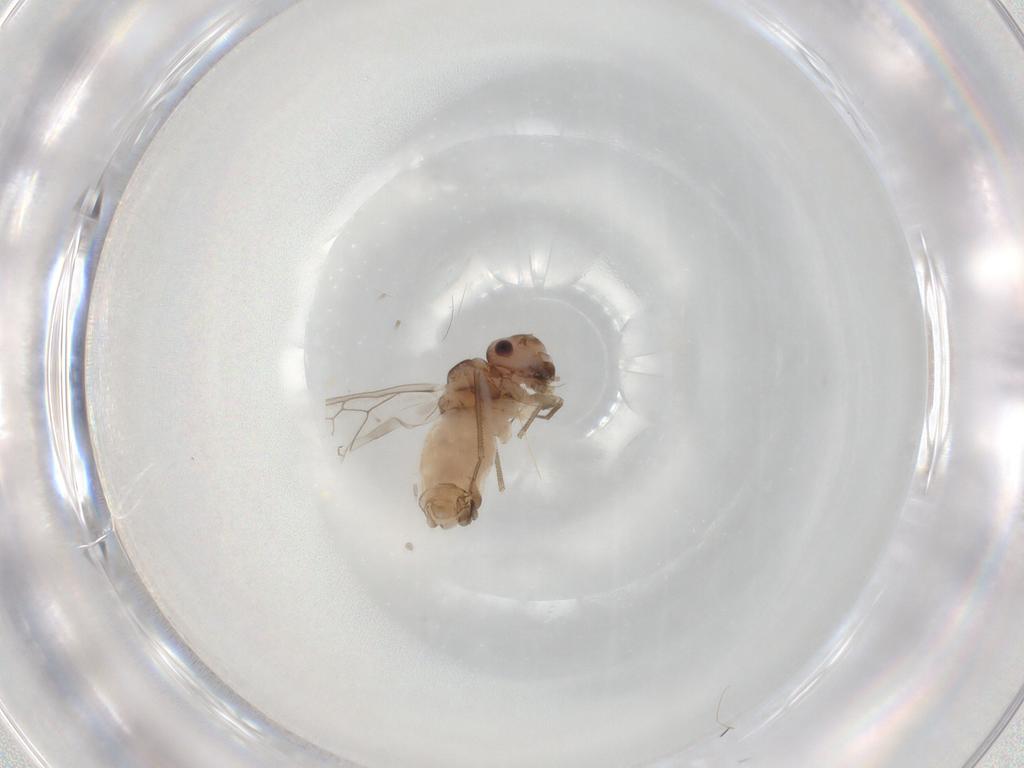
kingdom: Animalia
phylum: Arthropoda
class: Insecta
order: Psocodea
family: Peripsocidae
